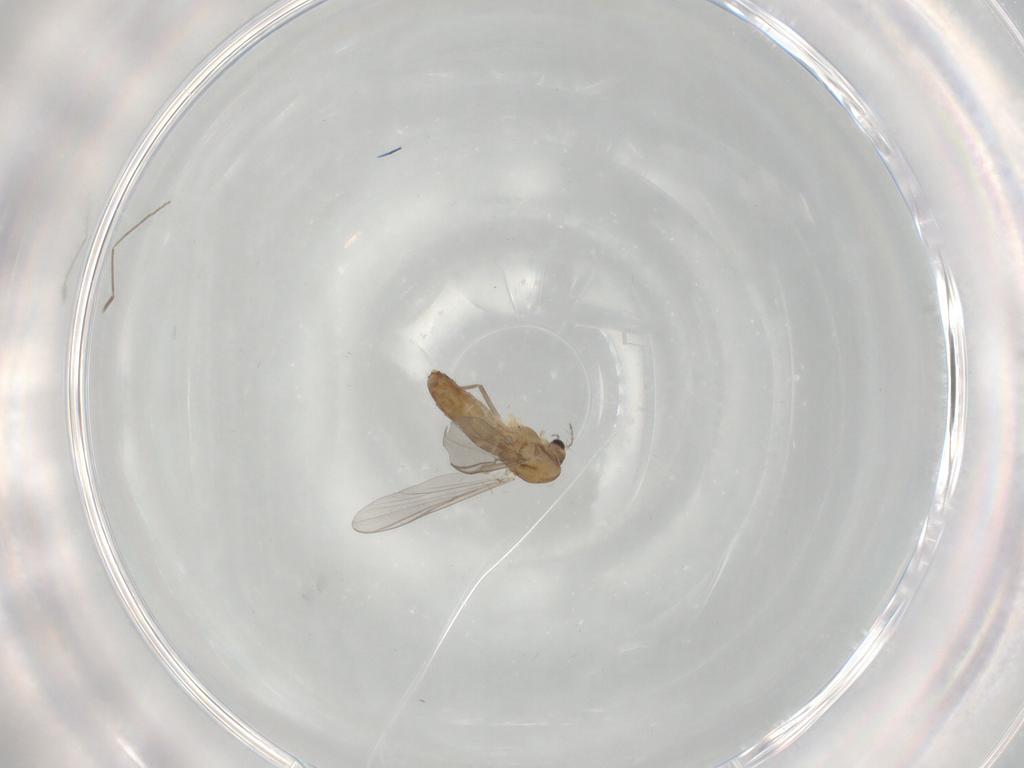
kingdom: Animalia
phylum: Arthropoda
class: Insecta
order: Diptera
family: Chironomidae
